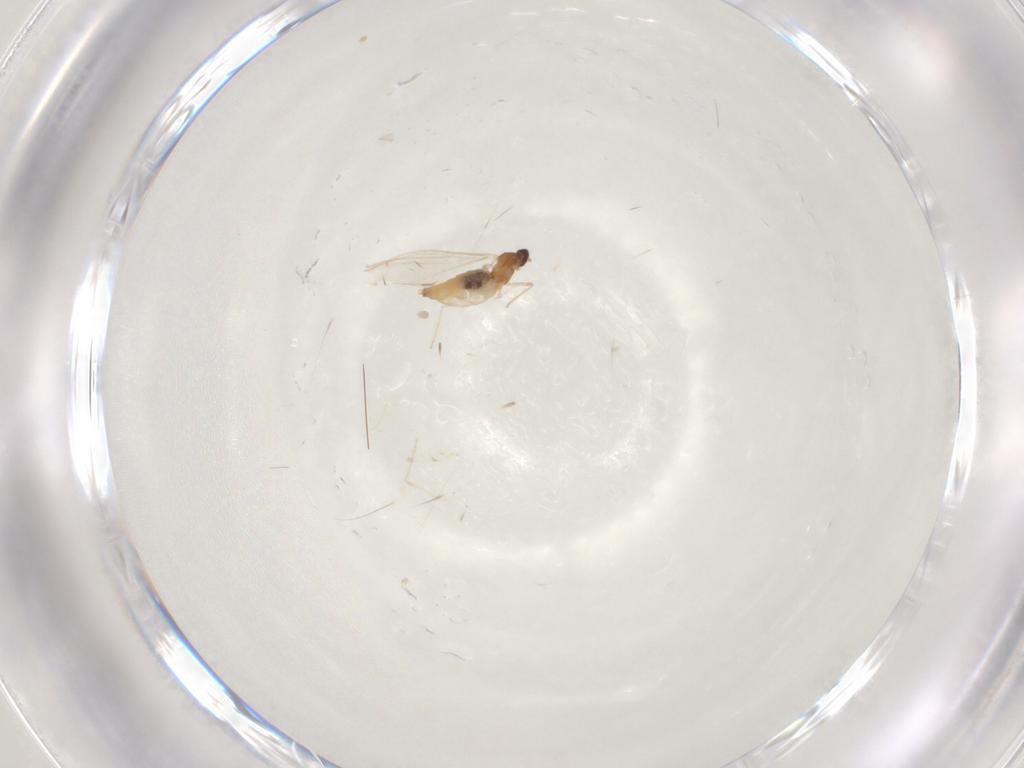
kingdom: Animalia
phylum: Arthropoda
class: Insecta
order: Diptera
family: Cecidomyiidae
